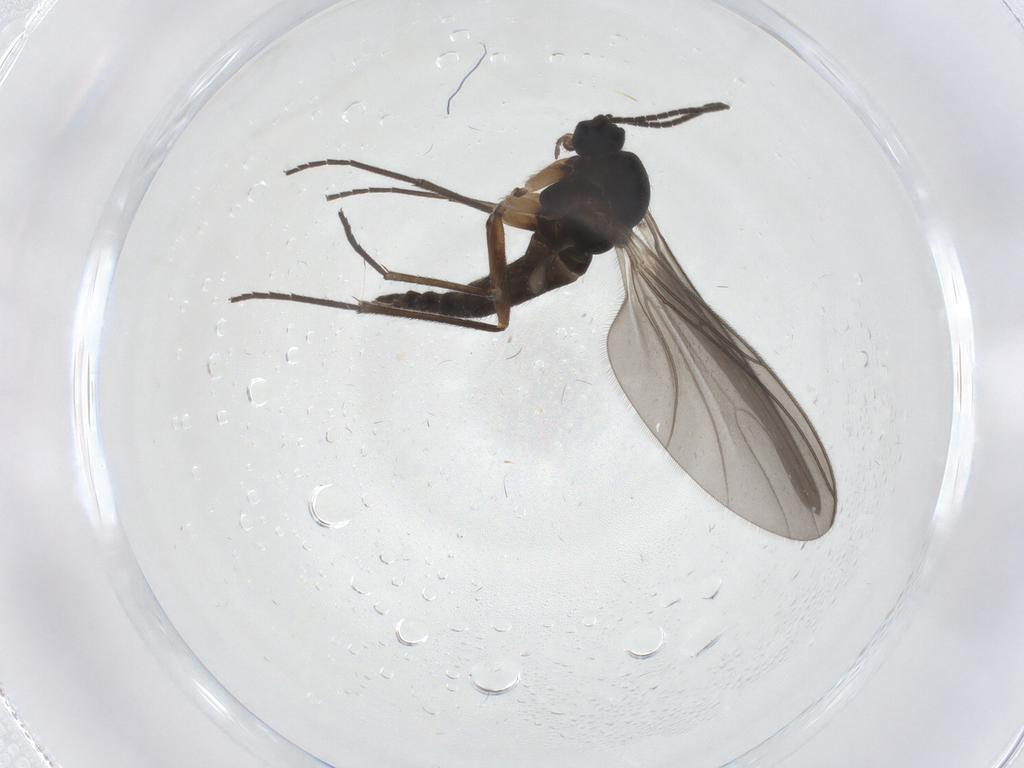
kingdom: Animalia
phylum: Arthropoda
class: Insecta
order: Diptera
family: Sciaridae
